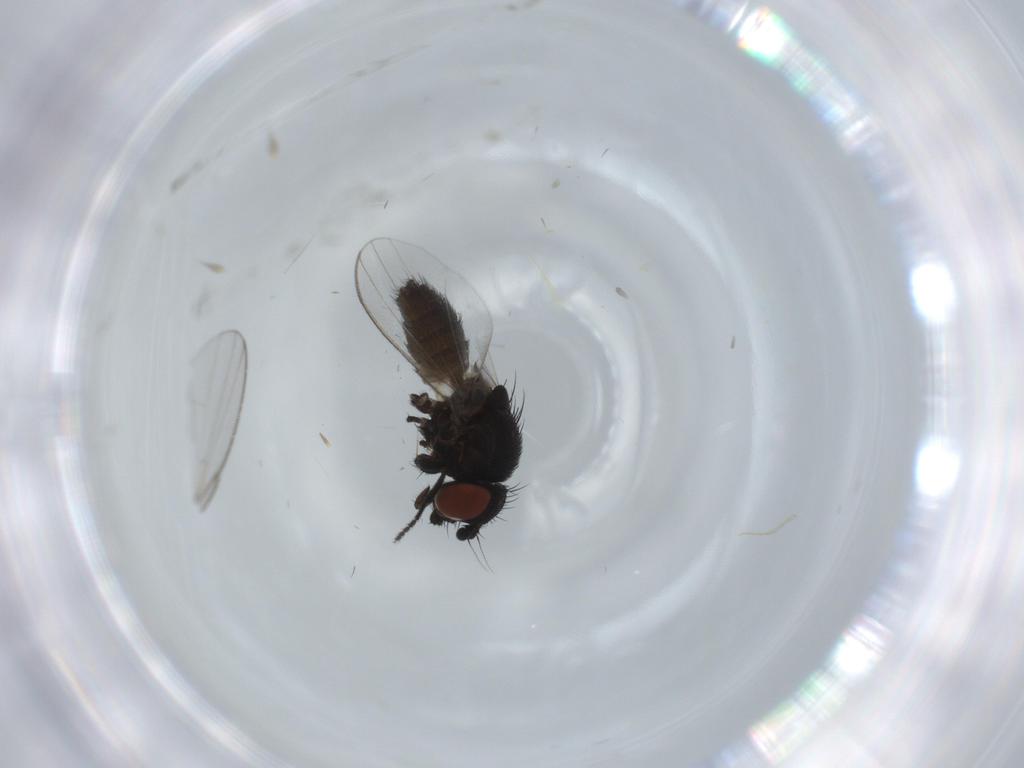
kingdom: Animalia
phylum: Arthropoda
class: Insecta
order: Diptera
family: Milichiidae
